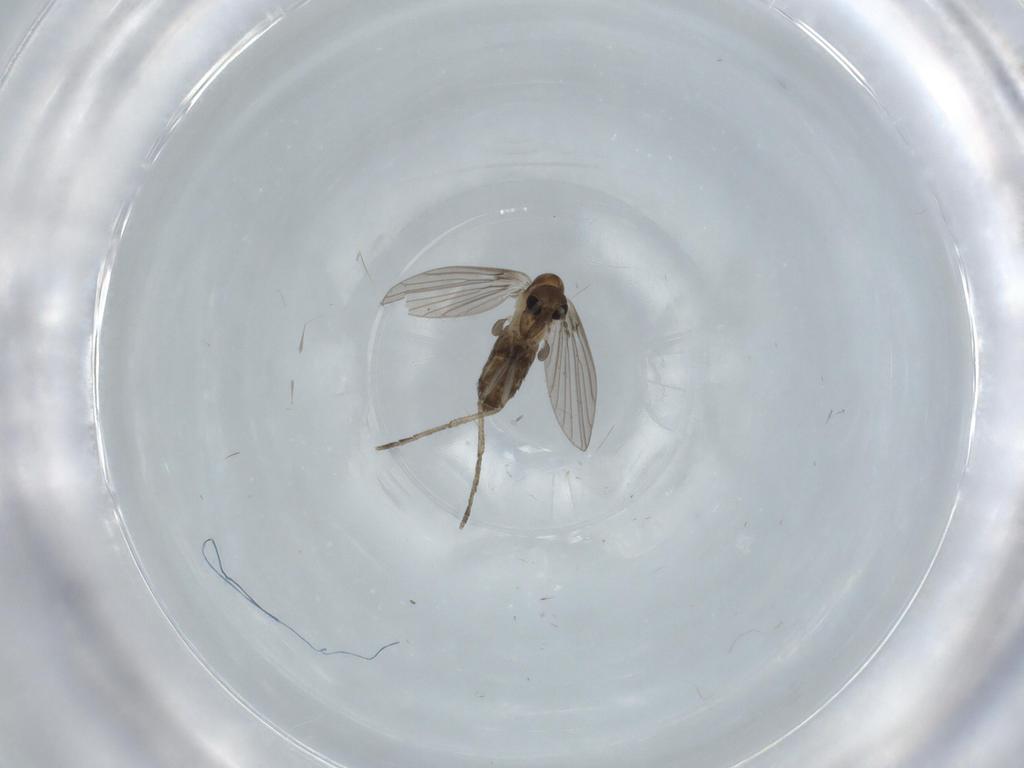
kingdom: Animalia
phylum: Arthropoda
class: Insecta
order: Diptera
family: Psychodidae
